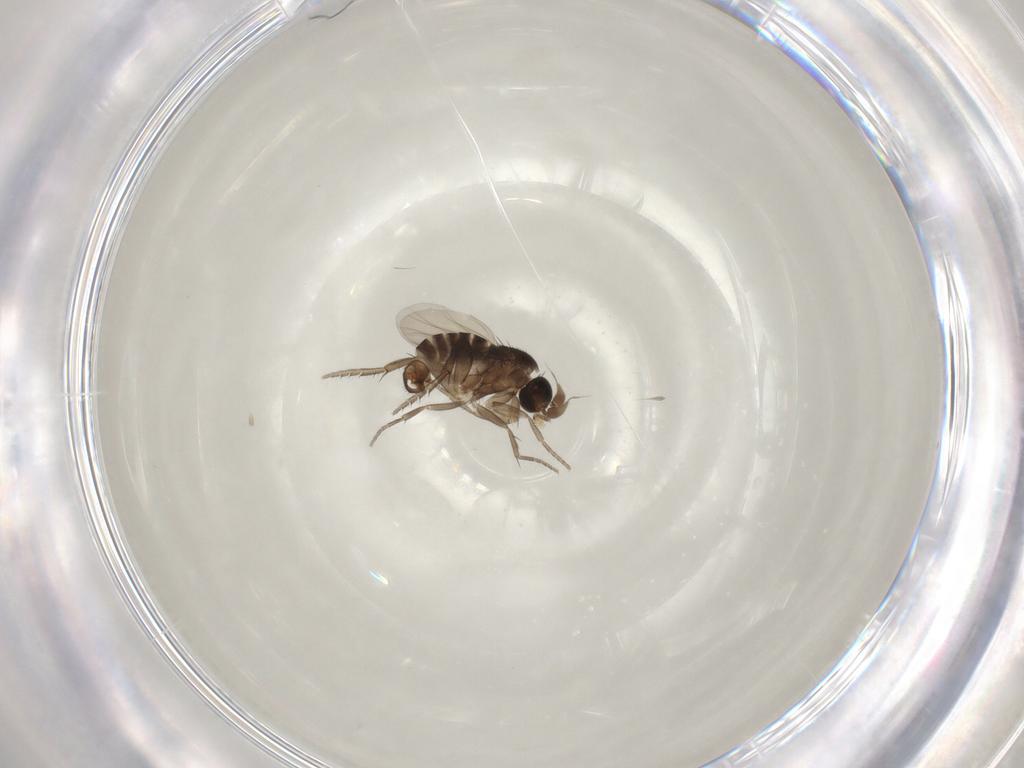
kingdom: Animalia
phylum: Arthropoda
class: Insecta
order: Diptera
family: Phoridae
